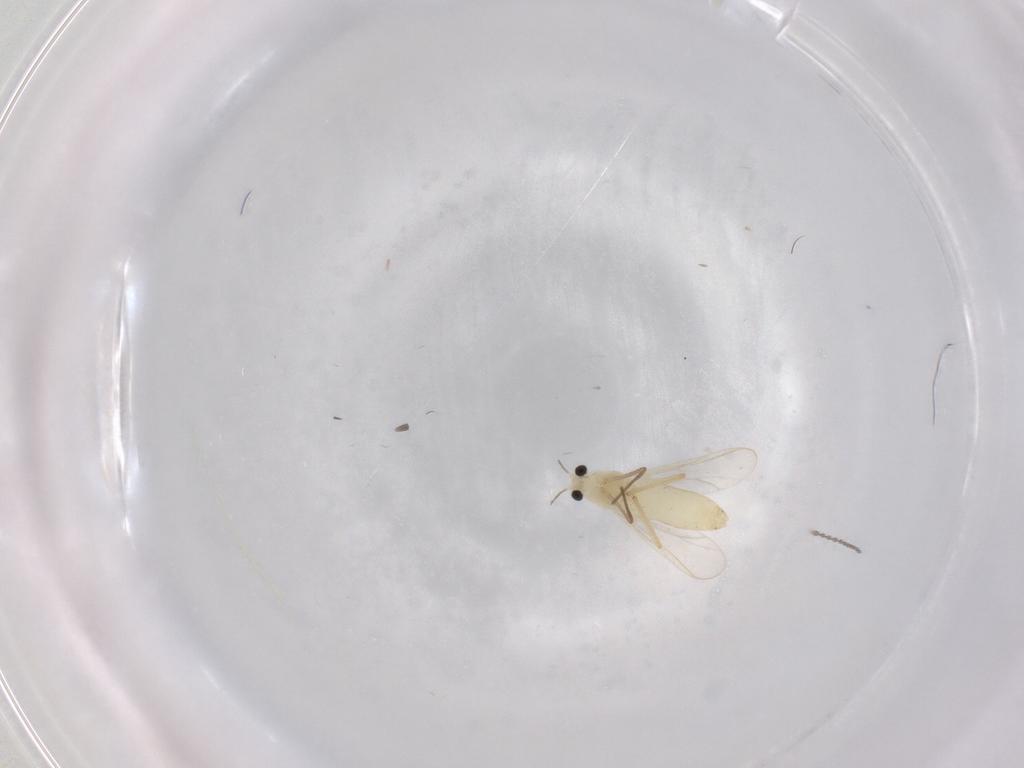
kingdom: Animalia
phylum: Arthropoda
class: Insecta
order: Diptera
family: Chironomidae
